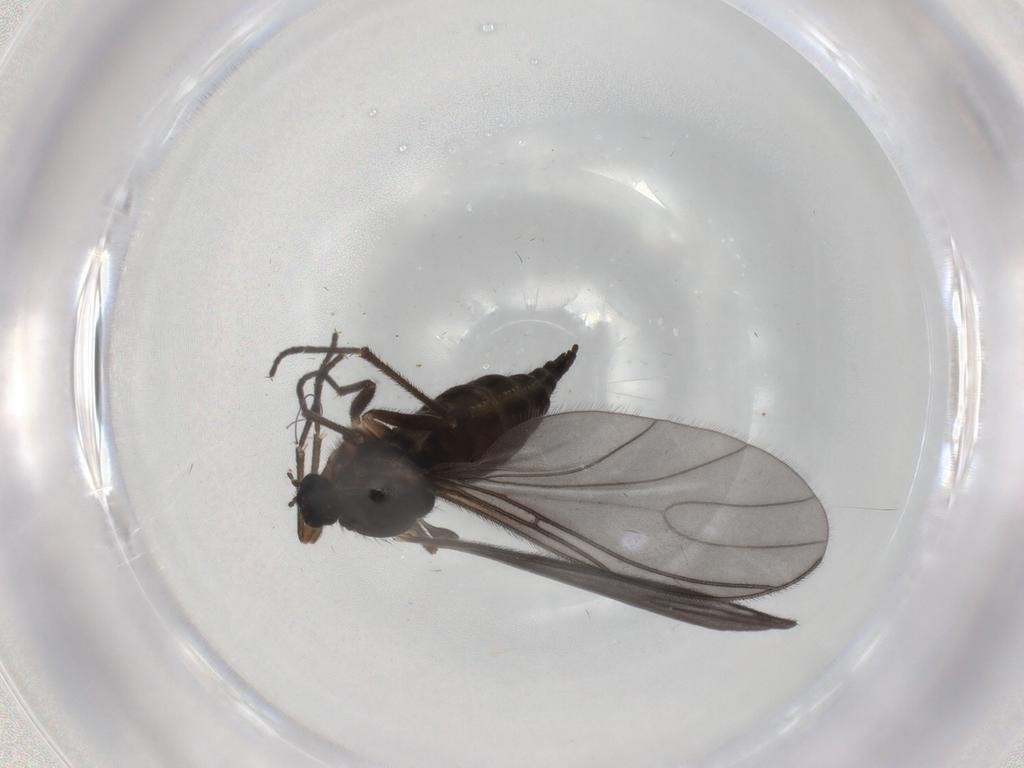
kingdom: Animalia
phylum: Arthropoda
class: Insecta
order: Diptera
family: Sciaridae
